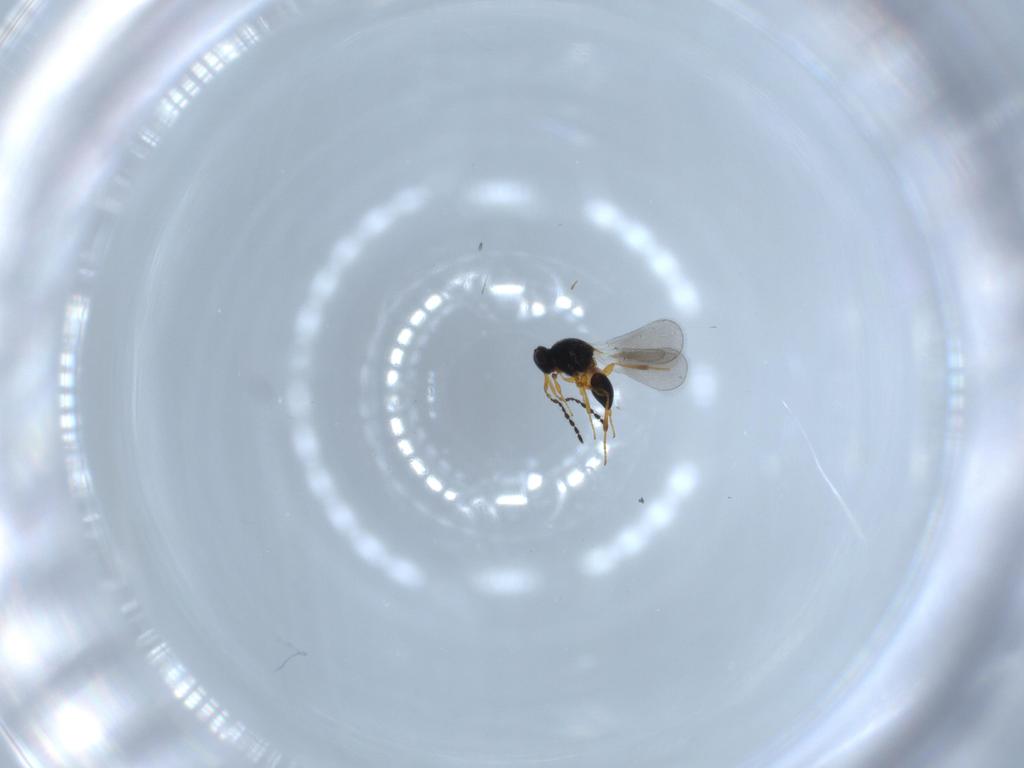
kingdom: Animalia
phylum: Arthropoda
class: Insecta
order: Hymenoptera
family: Platygastridae
